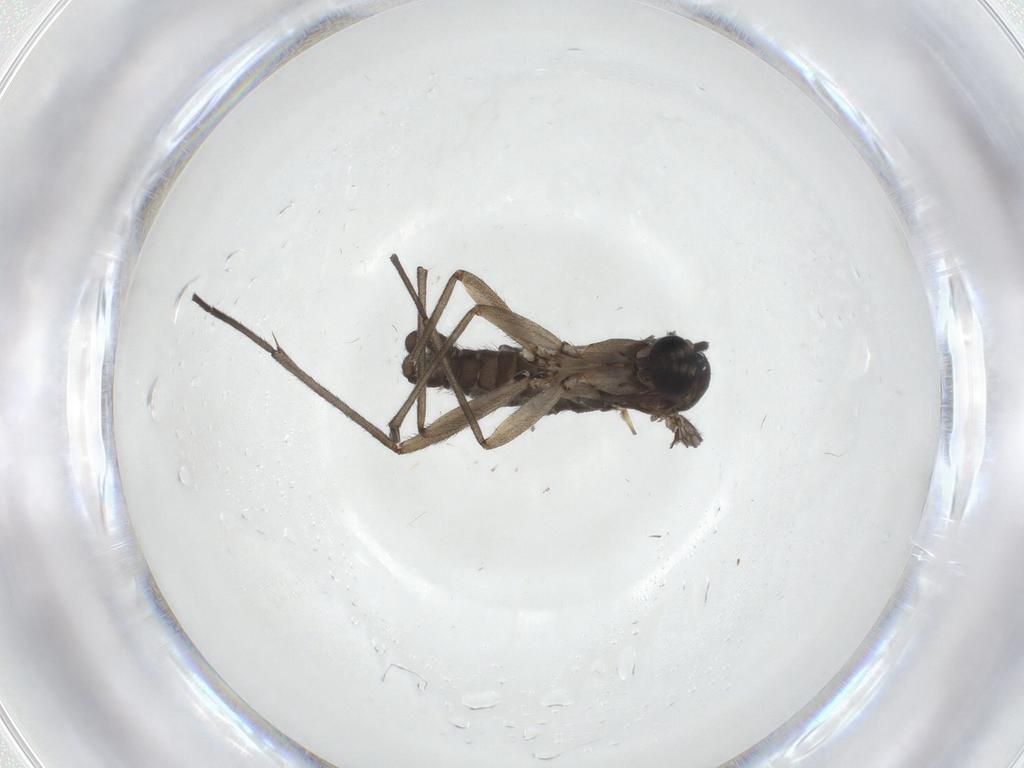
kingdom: Animalia
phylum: Arthropoda
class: Insecta
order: Diptera
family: Sciaridae
